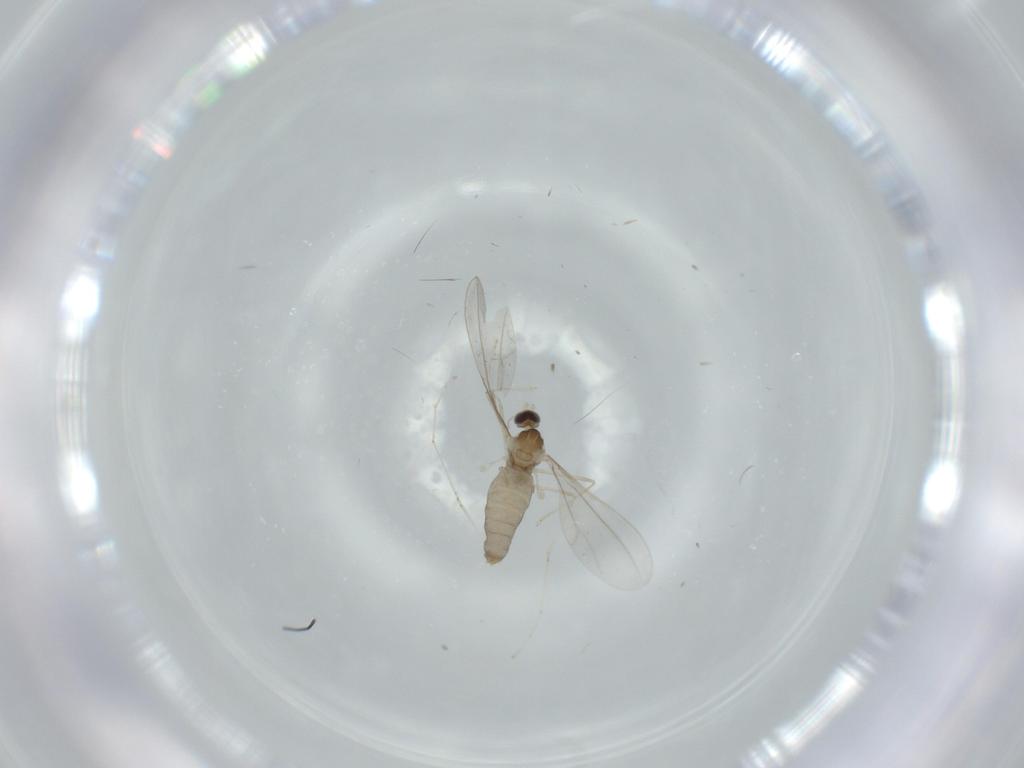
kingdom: Animalia
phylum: Arthropoda
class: Insecta
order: Diptera
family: Cecidomyiidae
